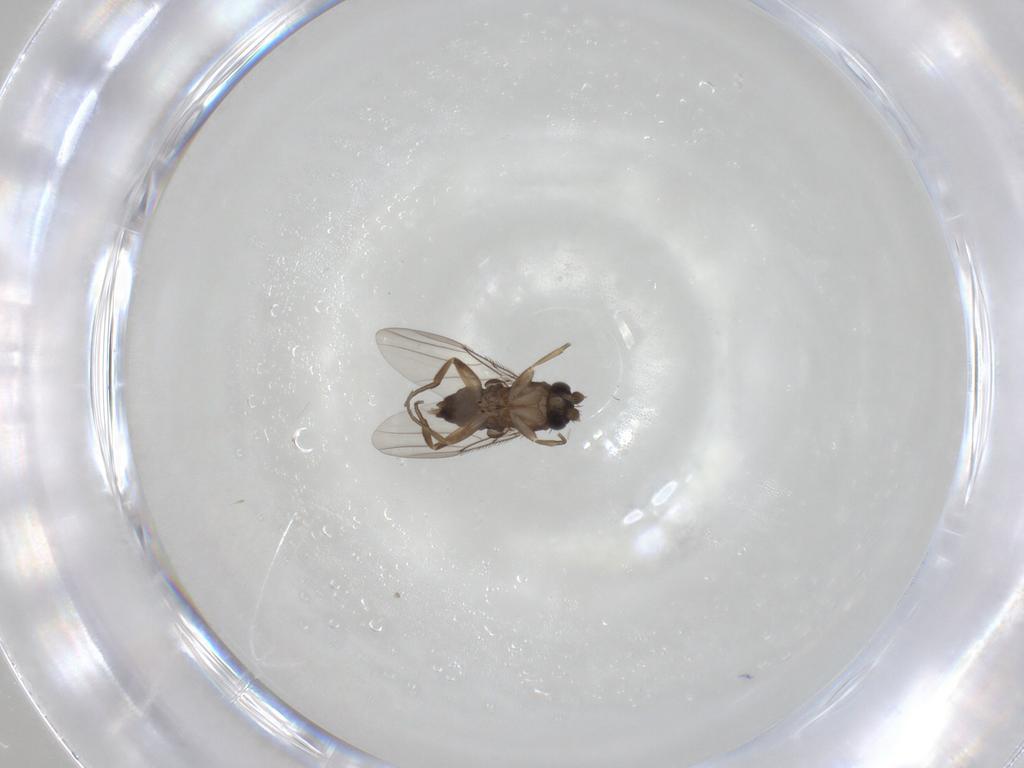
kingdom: Animalia
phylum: Arthropoda
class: Insecta
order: Diptera
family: Chironomidae
